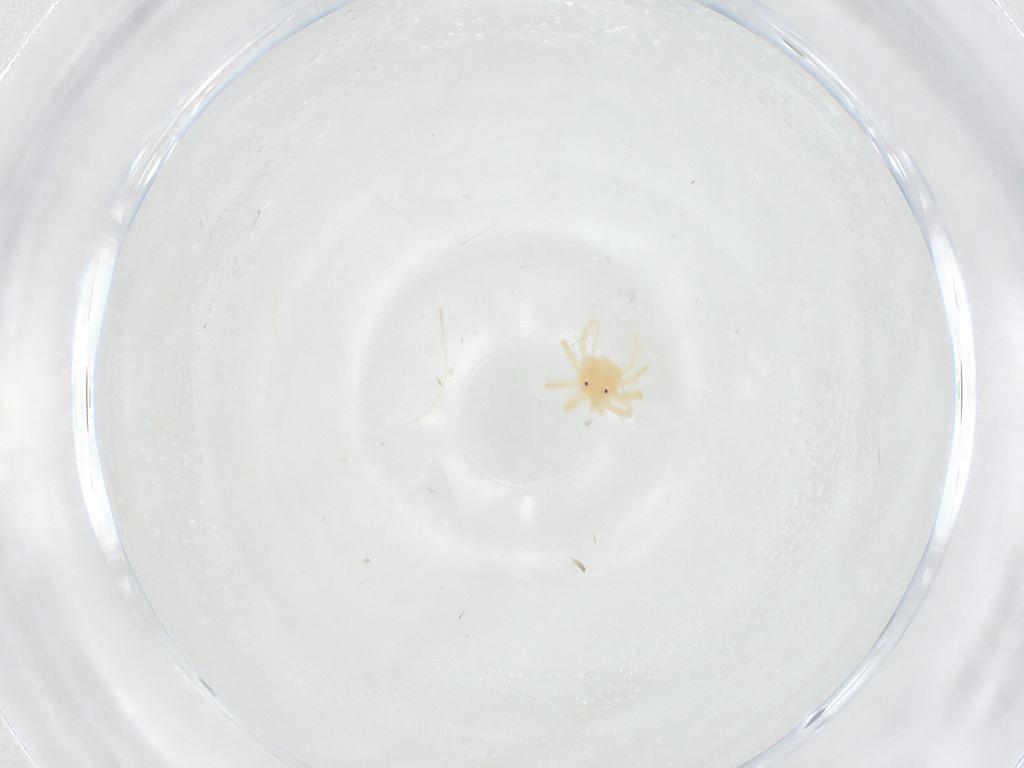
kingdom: Animalia
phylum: Arthropoda
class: Arachnida
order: Trombidiformes
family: Anystidae
